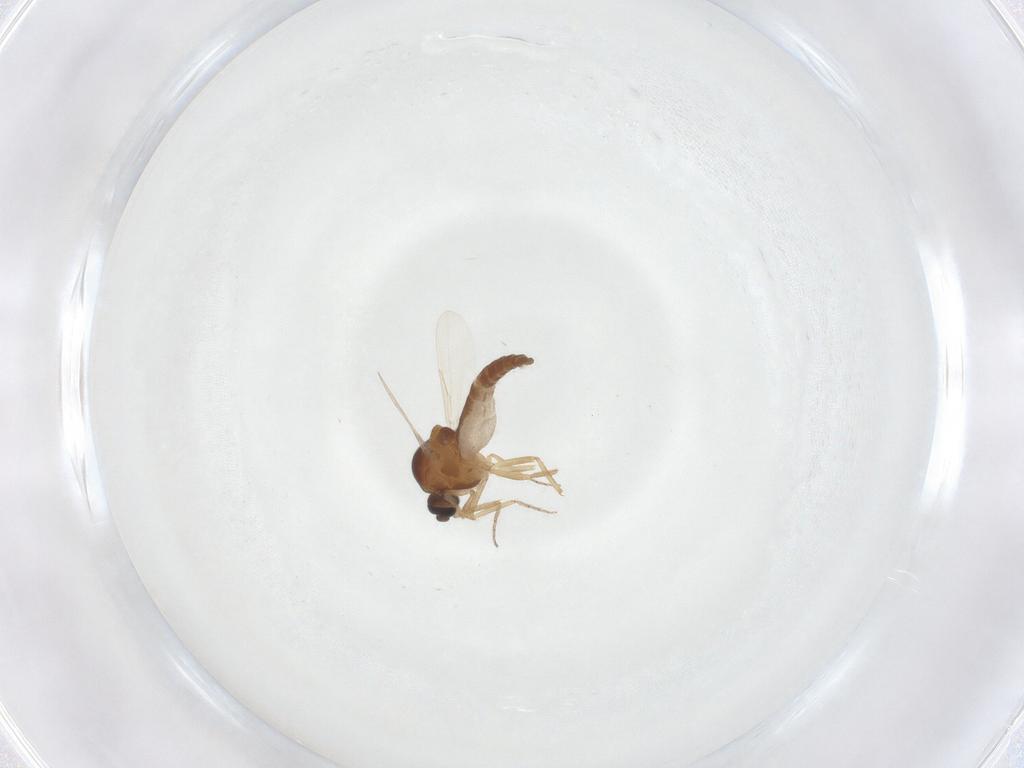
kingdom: Animalia
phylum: Arthropoda
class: Insecta
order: Diptera
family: Ceratopogonidae
